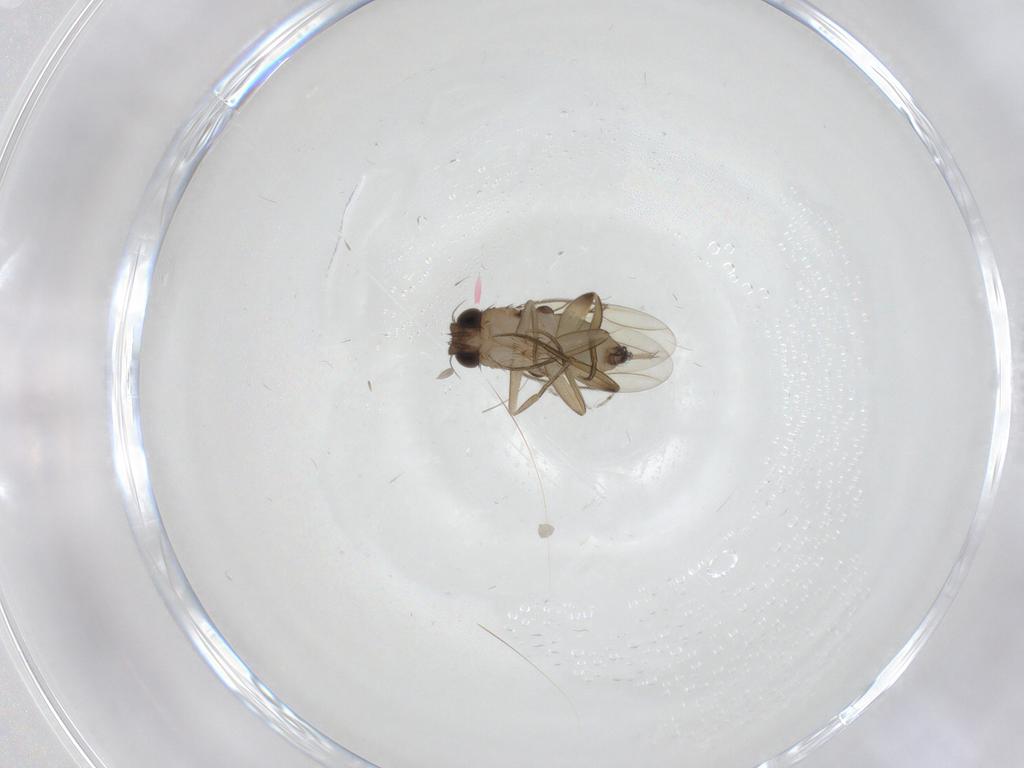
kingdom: Animalia
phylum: Arthropoda
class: Insecta
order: Diptera
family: Phoridae
